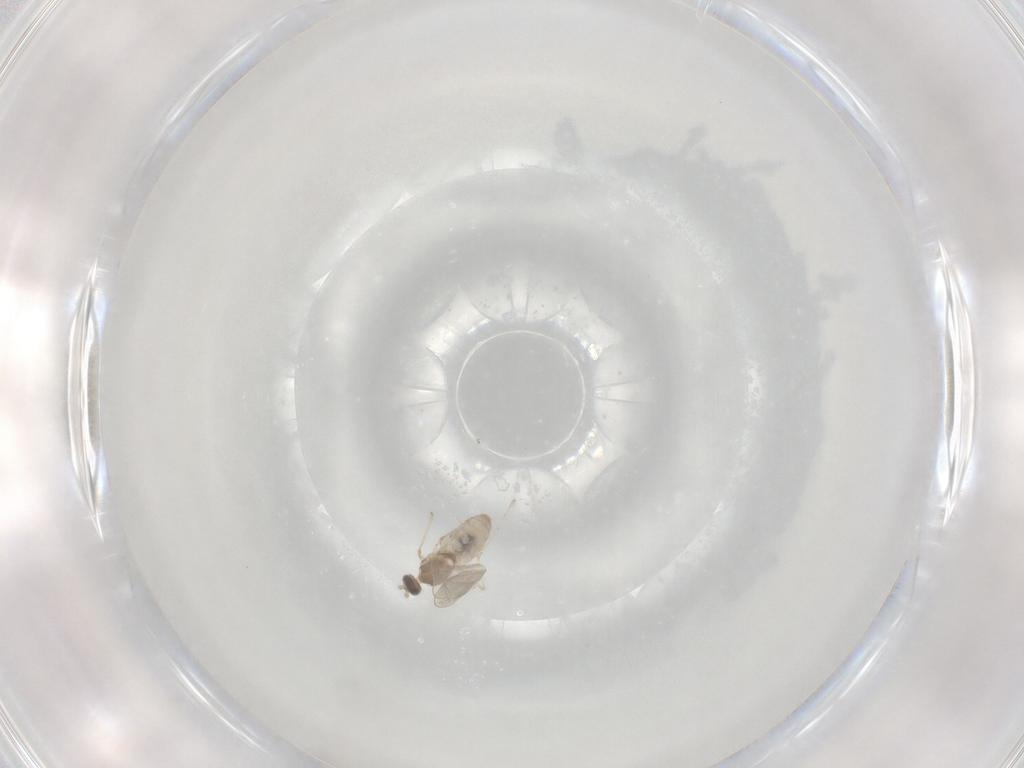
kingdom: Animalia
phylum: Arthropoda
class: Insecta
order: Diptera
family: Cecidomyiidae
